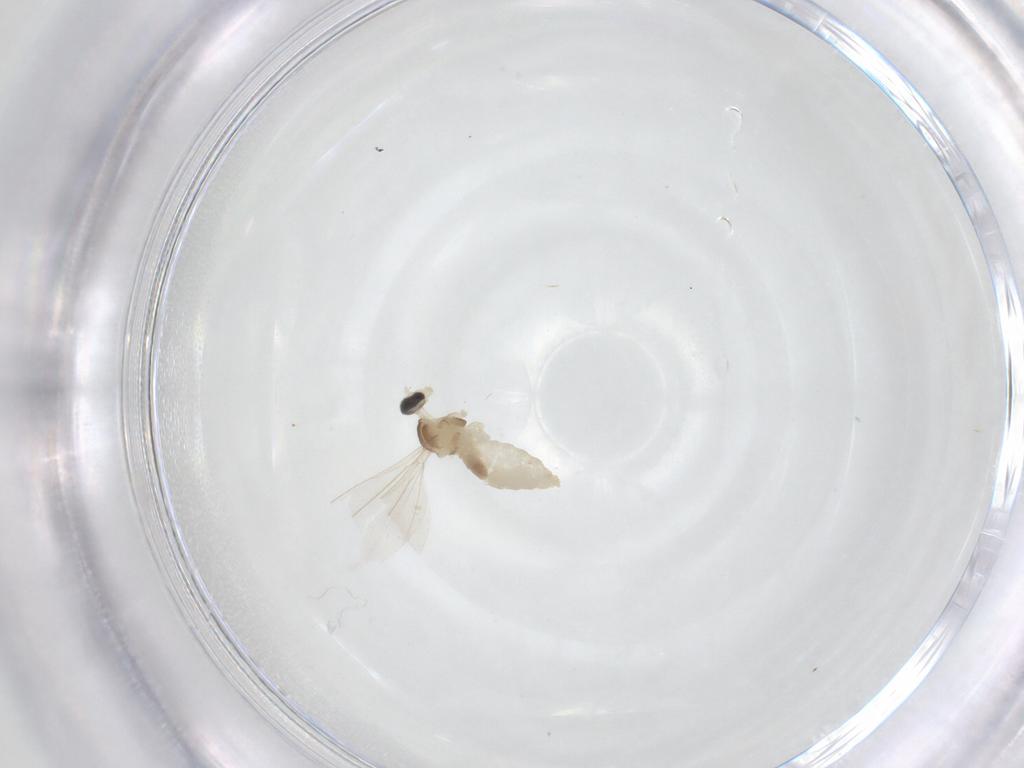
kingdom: Animalia
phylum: Arthropoda
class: Insecta
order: Diptera
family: Cecidomyiidae
